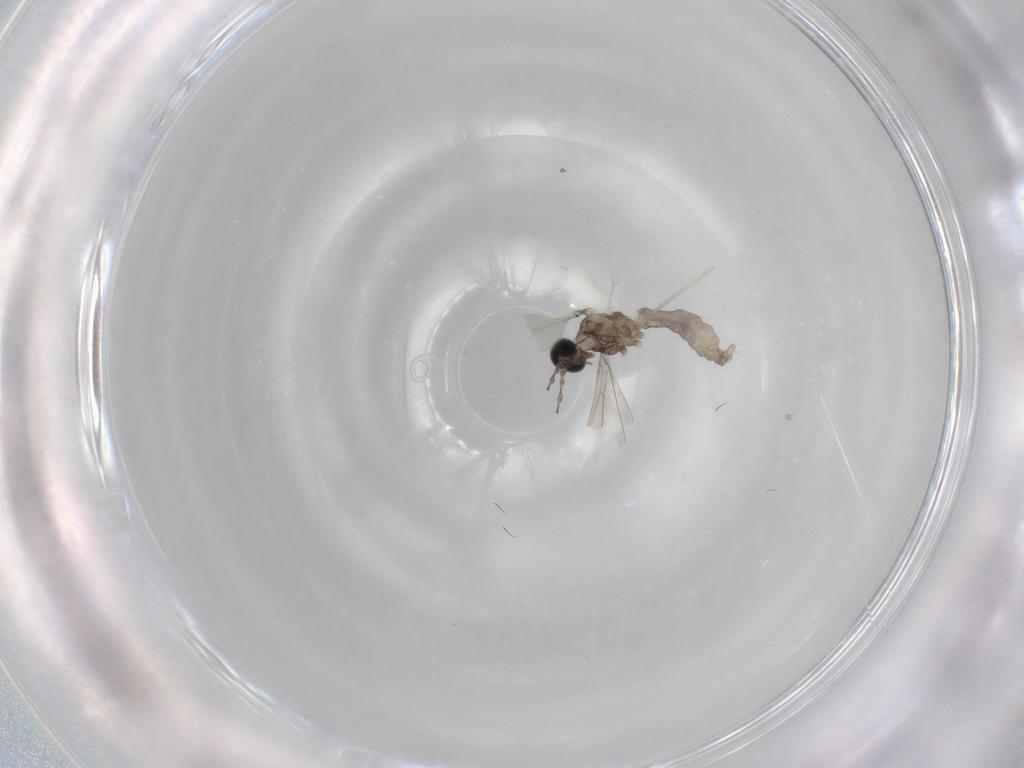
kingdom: Animalia
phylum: Arthropoda
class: Insecta
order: Diptera
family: Cecidomyiidae
